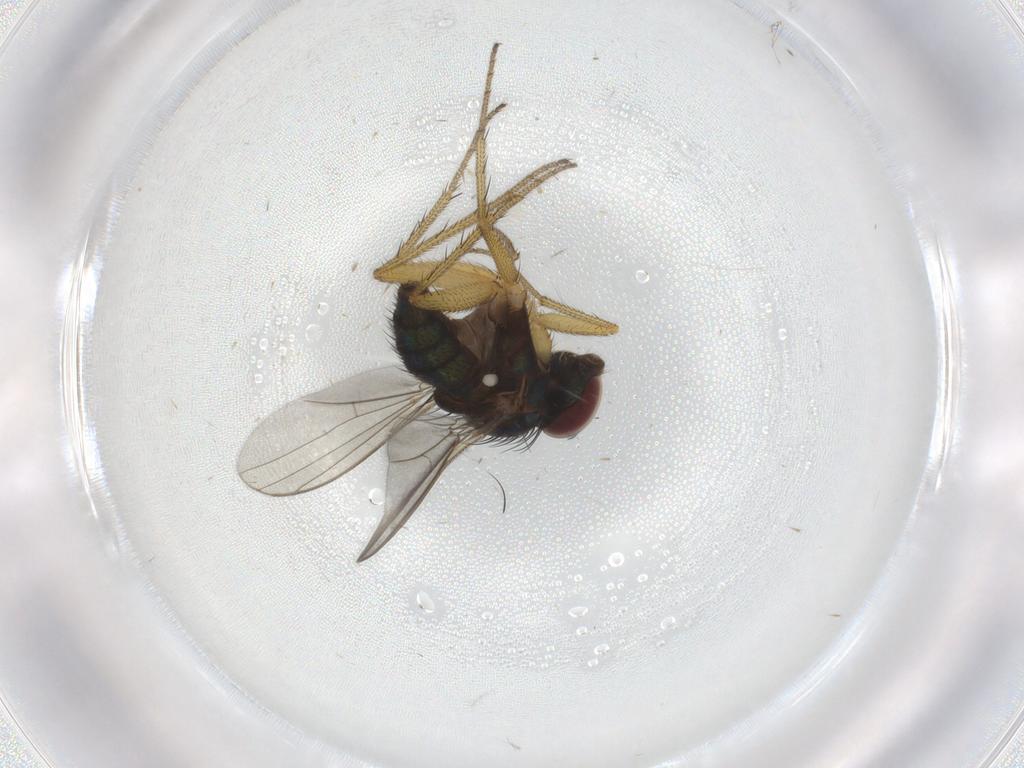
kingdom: Animalia
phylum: Arthropoda
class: Insecta
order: Diptera
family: Dolichopodidae
